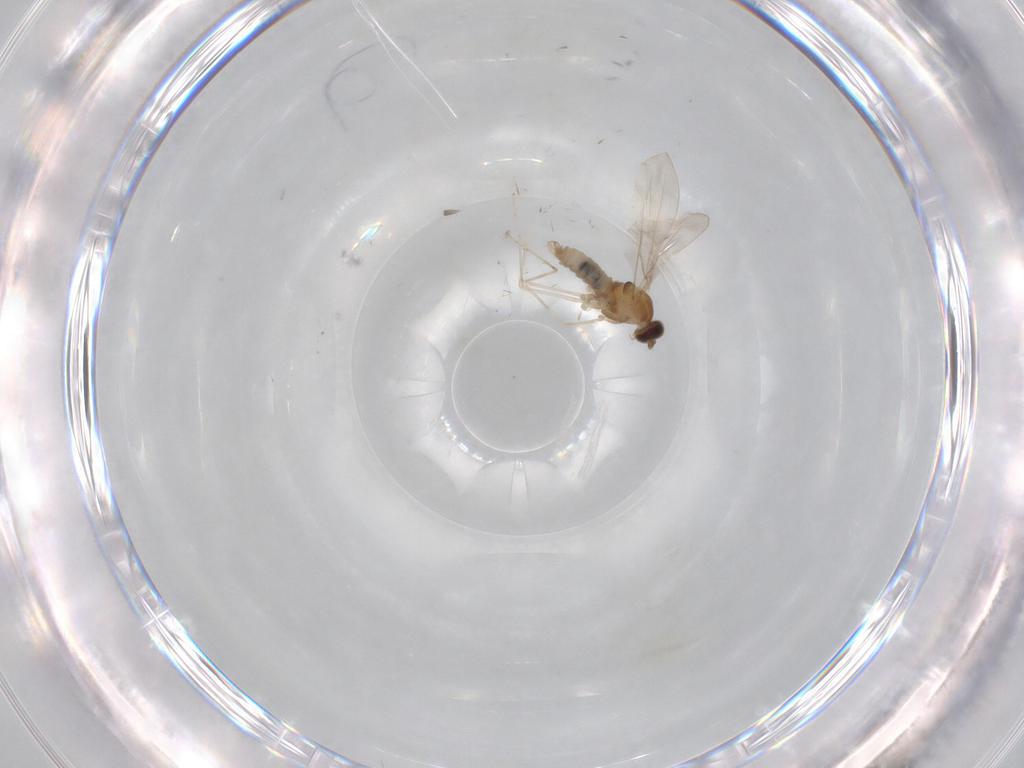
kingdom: Animalia
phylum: Arthropoda
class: Insecta
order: Diptera
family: Cecidomyiidae
